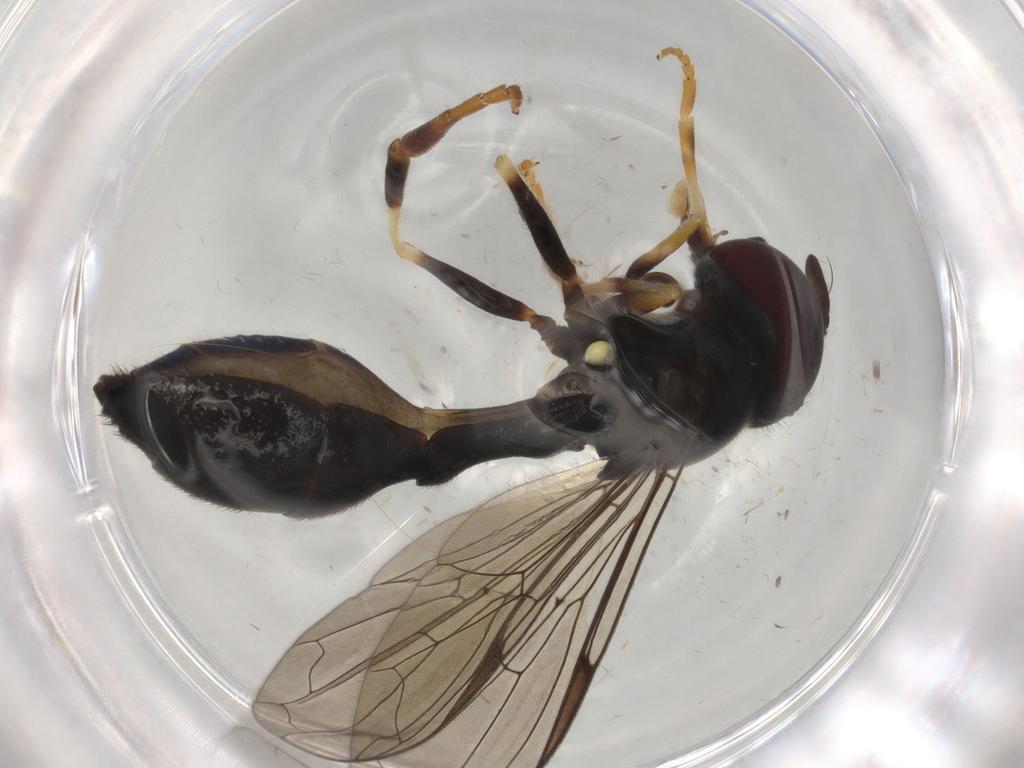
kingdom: Animalia
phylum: Arthropoda
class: Insecta
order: Diptera
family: Phoridae
